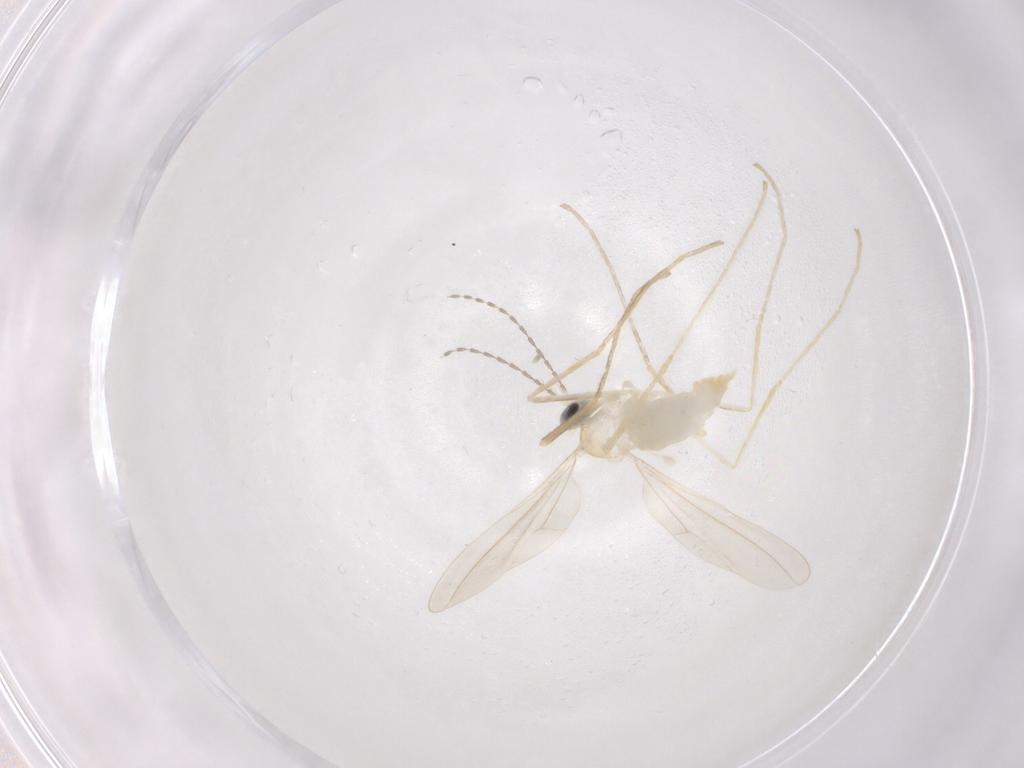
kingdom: Animalia
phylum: Arthropoda
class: Insecta
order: Diptera
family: Cecidomyiidae
